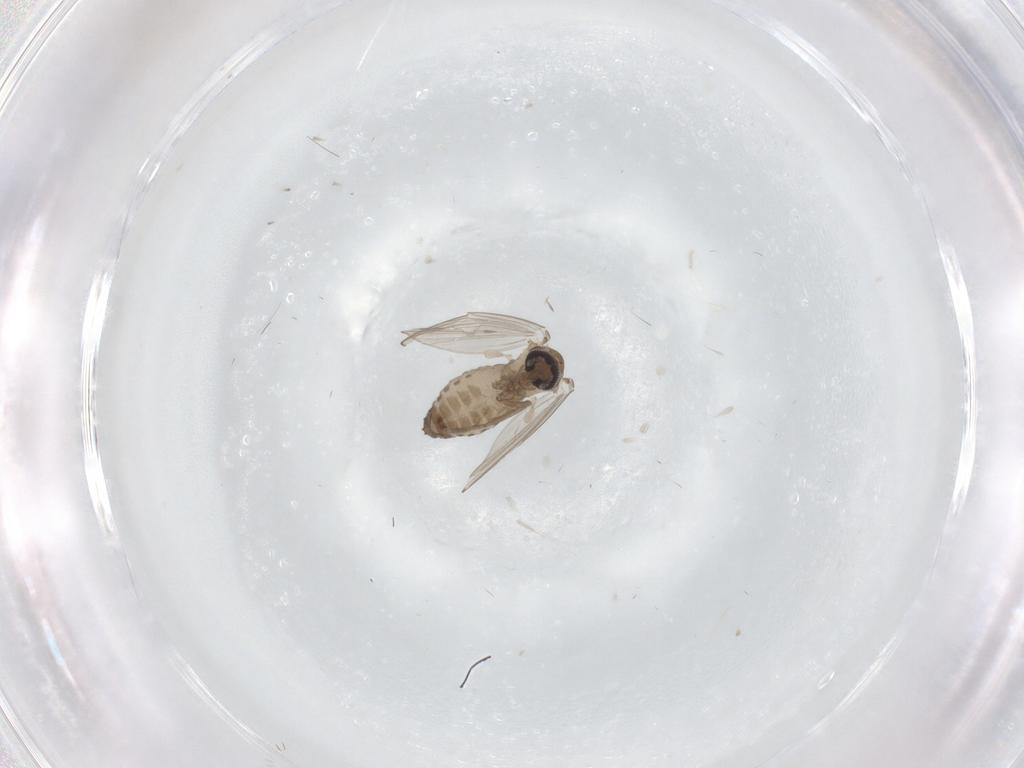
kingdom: Animalia
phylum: Arthropoda
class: Insecta
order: Diptera
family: Psychodidae
